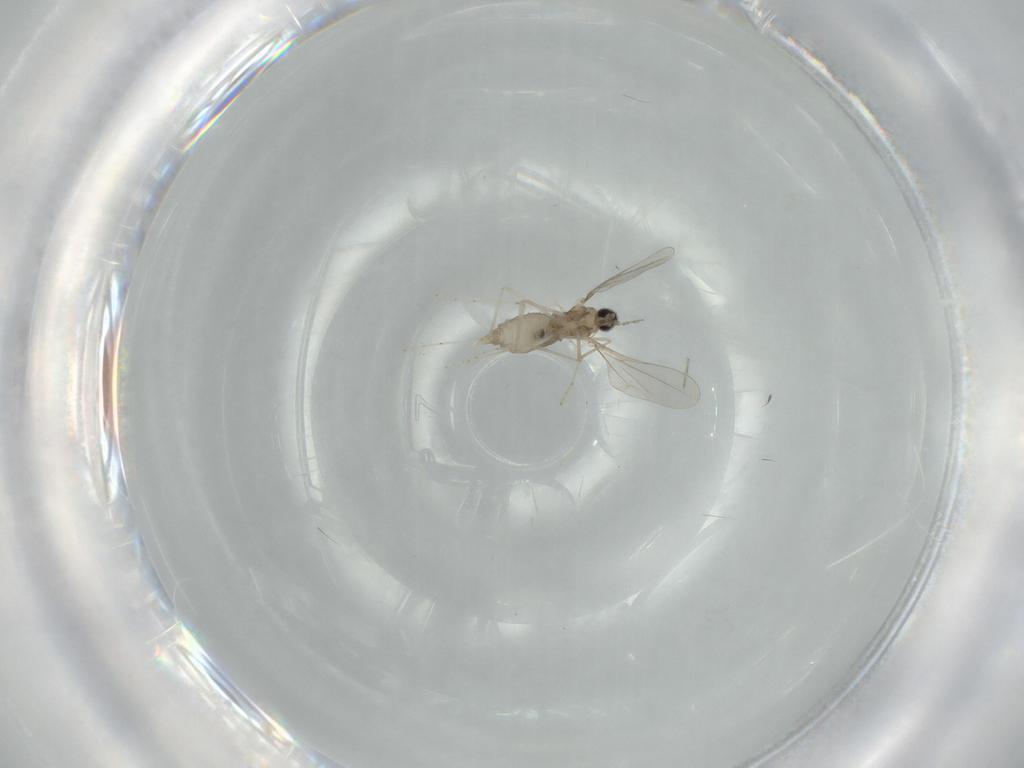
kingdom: Animalia
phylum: Arthropoda
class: Insecta
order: Diptera
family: Cecidomyiidae
